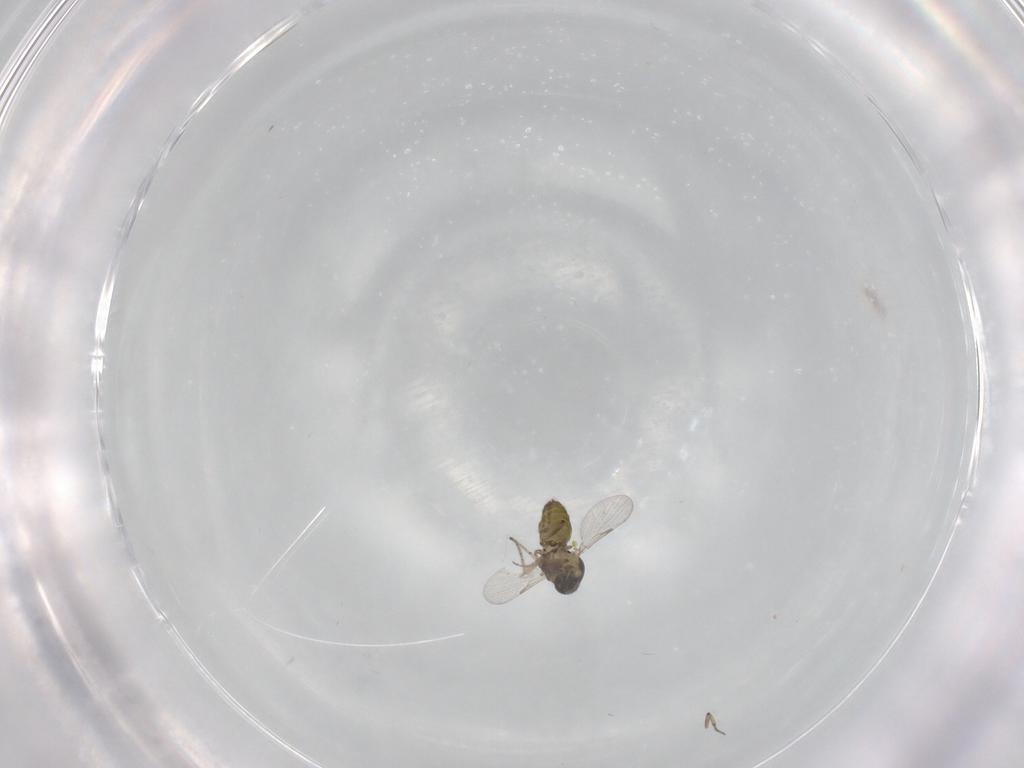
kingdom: Animalia
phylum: Arthropoda
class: Insecta
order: Diptera
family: Ceratopogonidae
